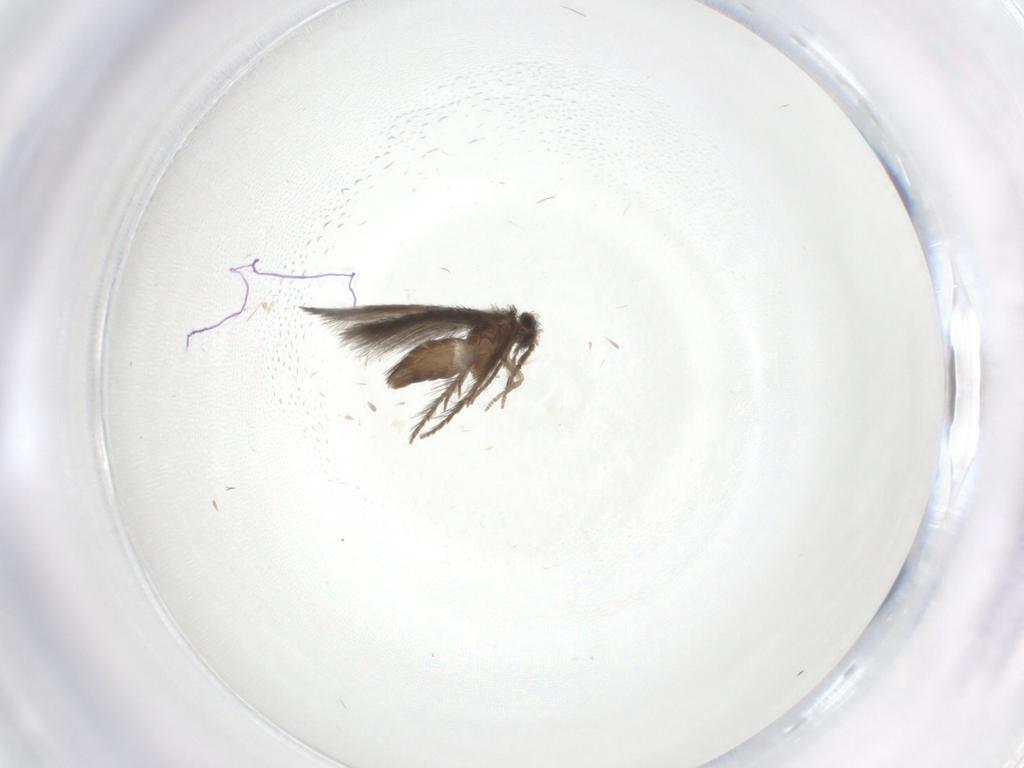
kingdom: Animalia
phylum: Arthropoda
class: Insecta
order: Trichoptera
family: Hydroptilidae
